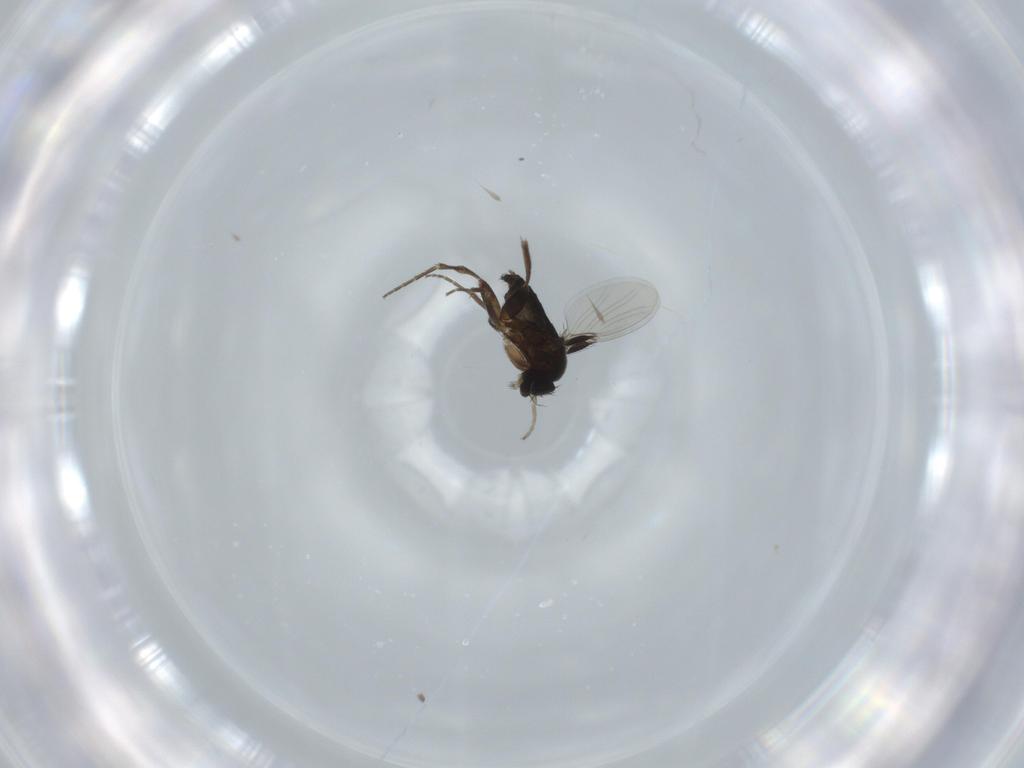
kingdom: Animalia
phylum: Arthropoda
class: Insecta
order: Diptera
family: Phoridae
